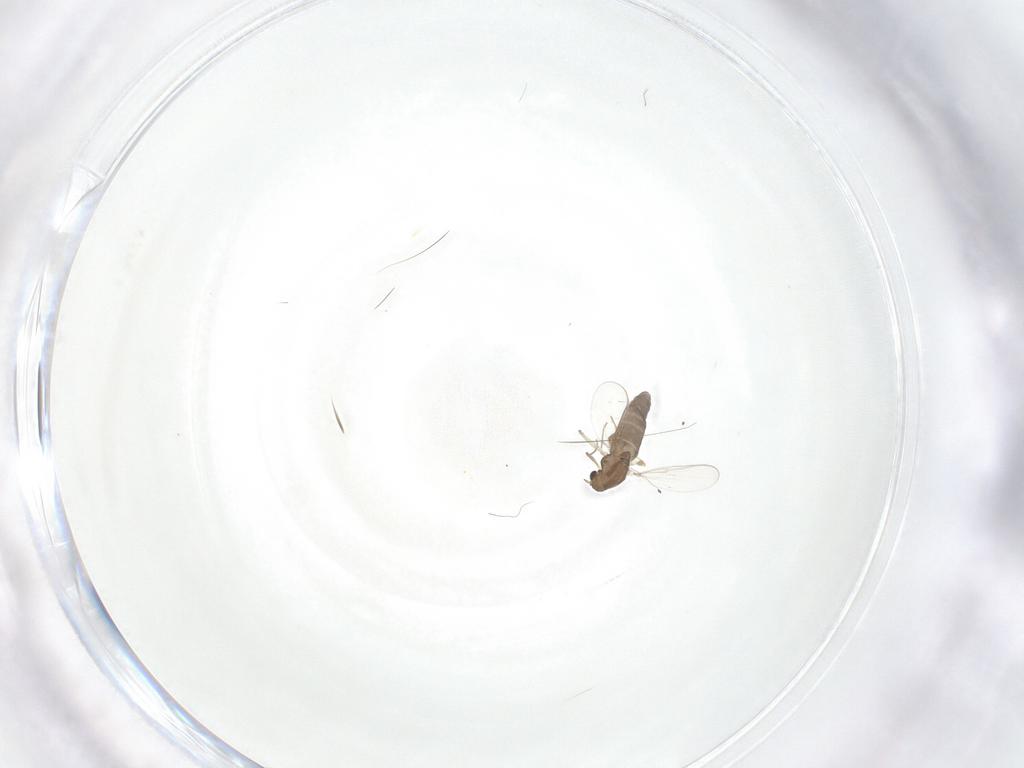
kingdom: Animalia
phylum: Arthropoda
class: Insecta
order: Diptera
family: Chironomidae
